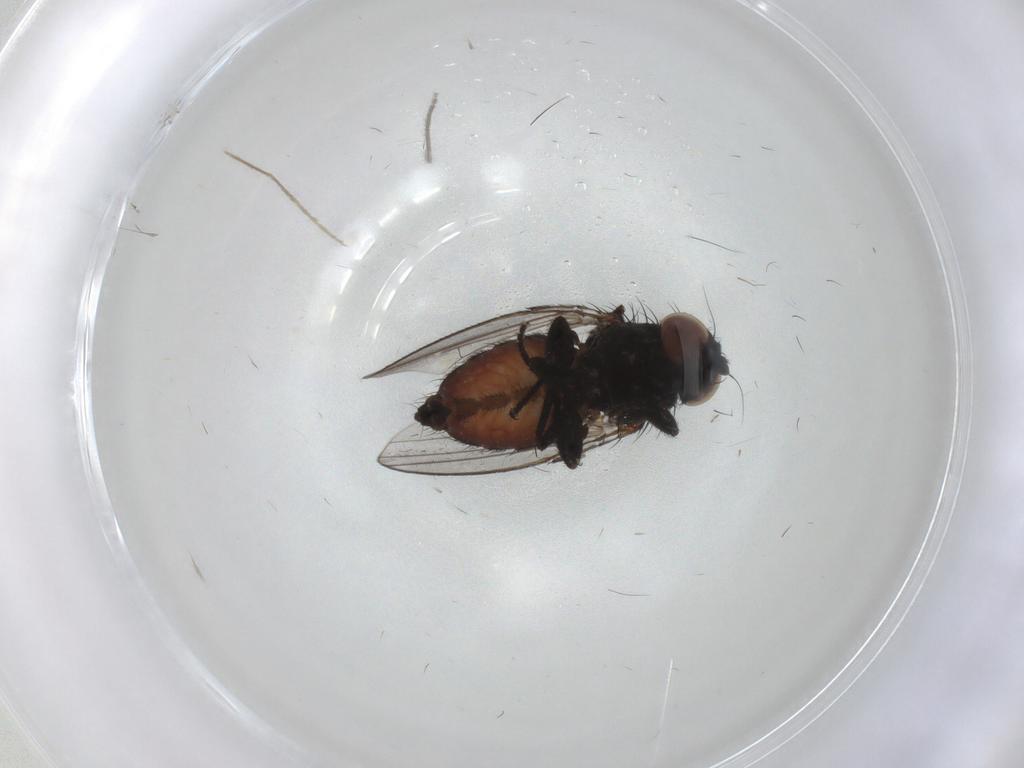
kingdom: Animalia
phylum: Arthropoda
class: Insecta
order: Diptera
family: Milichiidae
